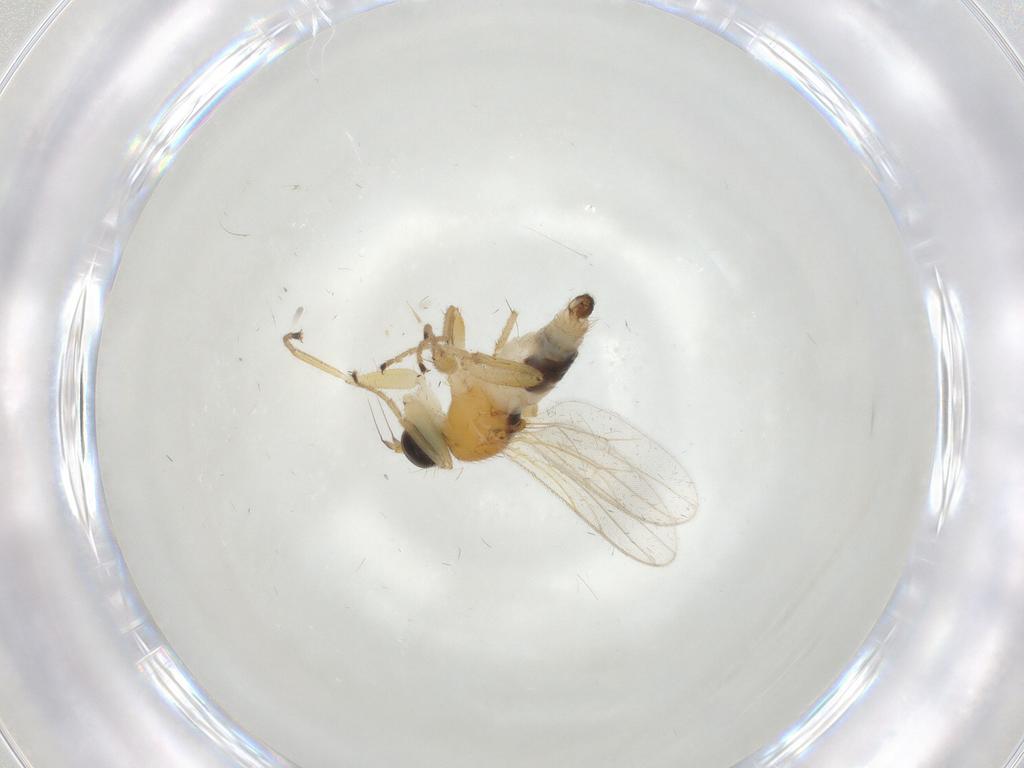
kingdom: Animalia
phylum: Arthropoda
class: Insecta
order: Diptera
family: Hybotidae
